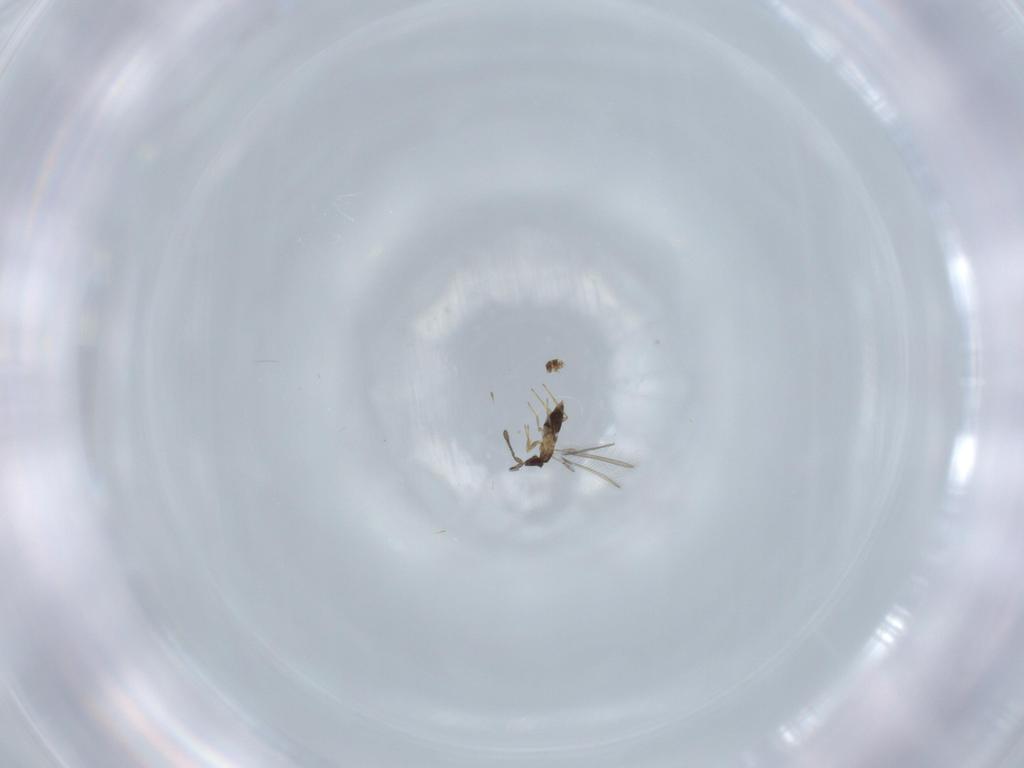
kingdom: Animalia
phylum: Arthropoda
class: Insecta
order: Hymenoptera
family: Mymaridae
